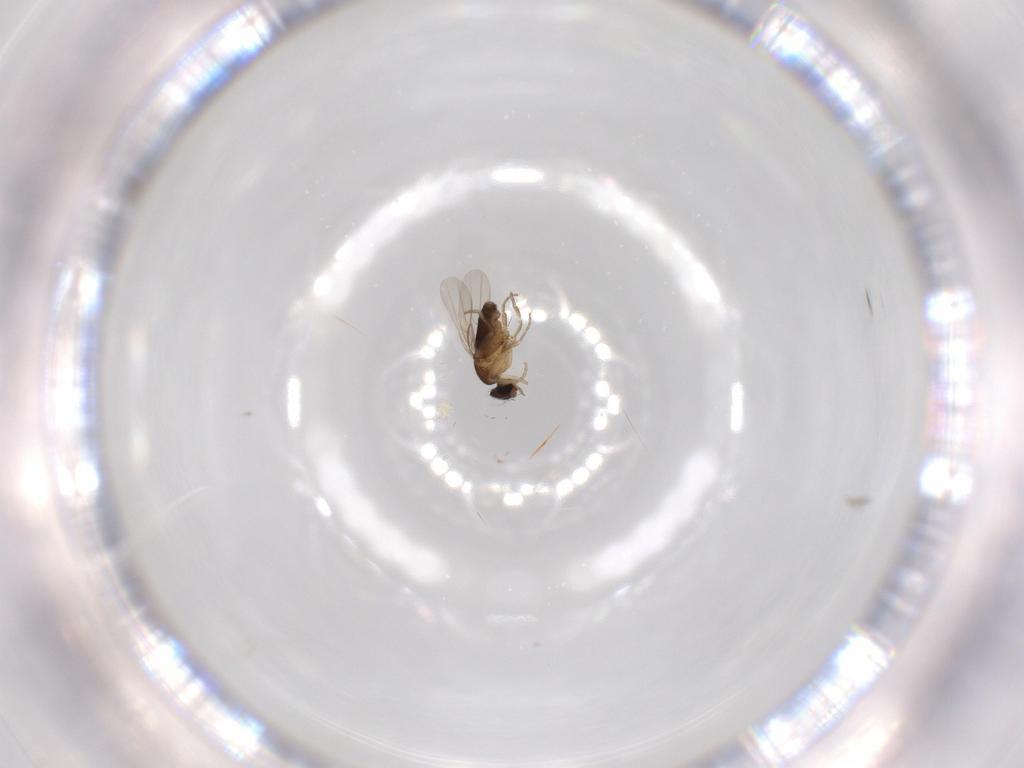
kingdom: Animalia
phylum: Arthropoda
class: Insecta
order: Diptera
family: Phoridae
